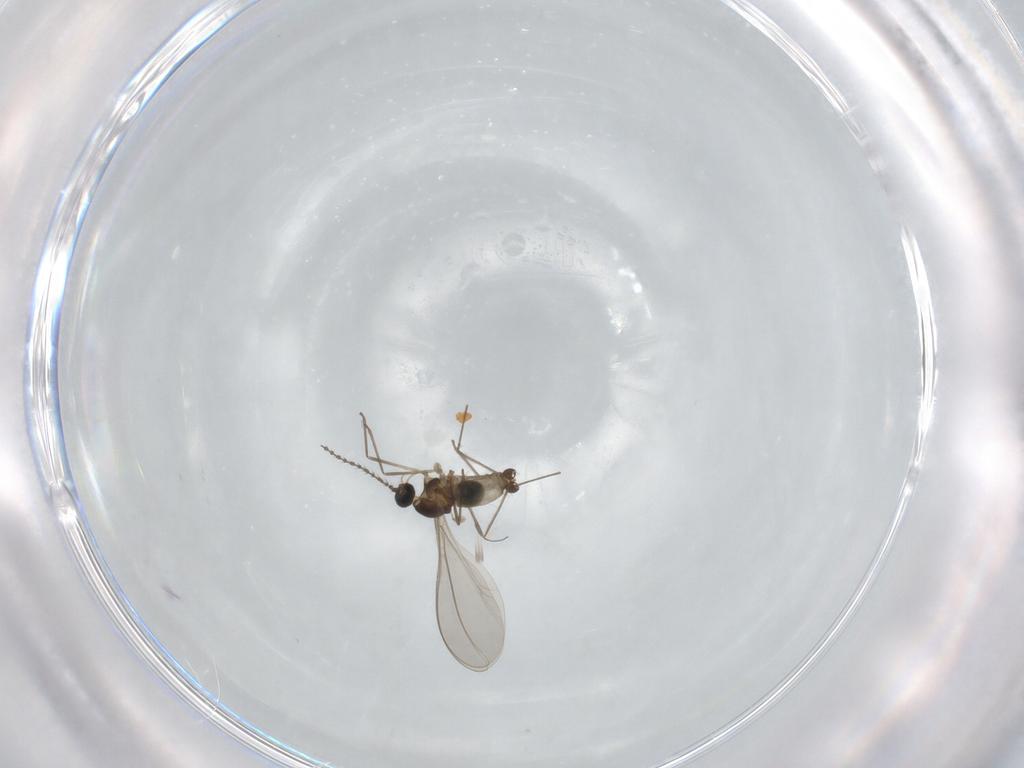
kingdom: Animalia
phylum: Arthropoda
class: Insecta
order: Diptera
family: Cecidomyiidae
